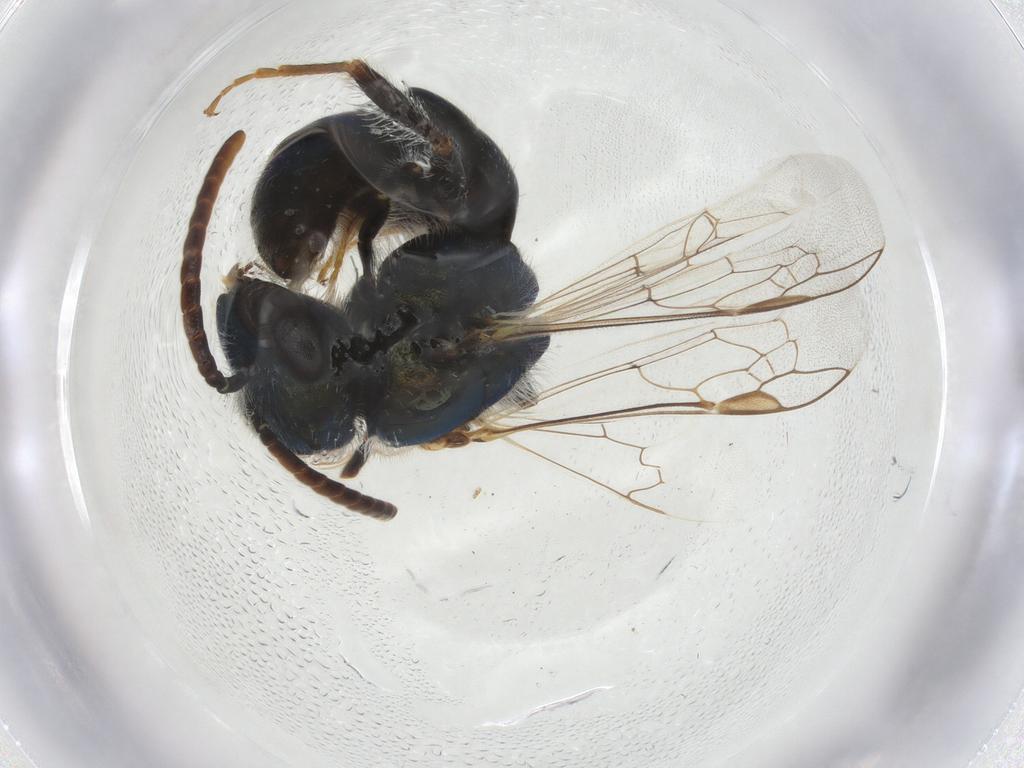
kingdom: Animalia
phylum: Arthropoda
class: Insecta
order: Hymenoptera
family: Halictidae
